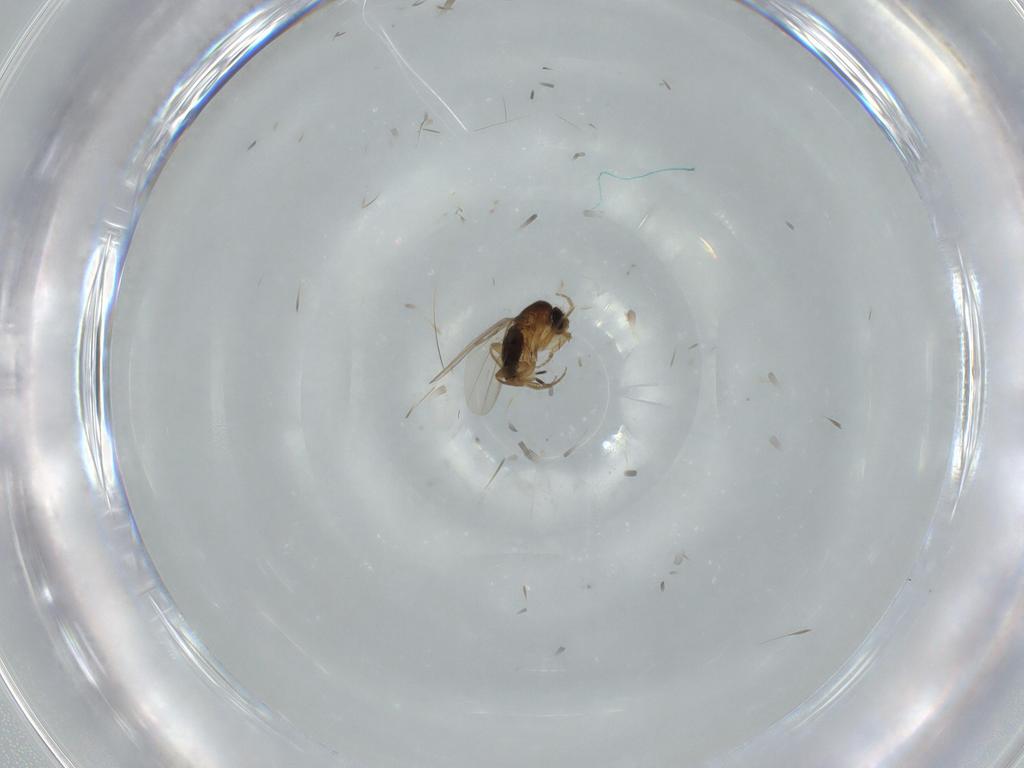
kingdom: Animalia
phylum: Arthropoda
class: Insecta
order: Diptera
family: Phoridae
